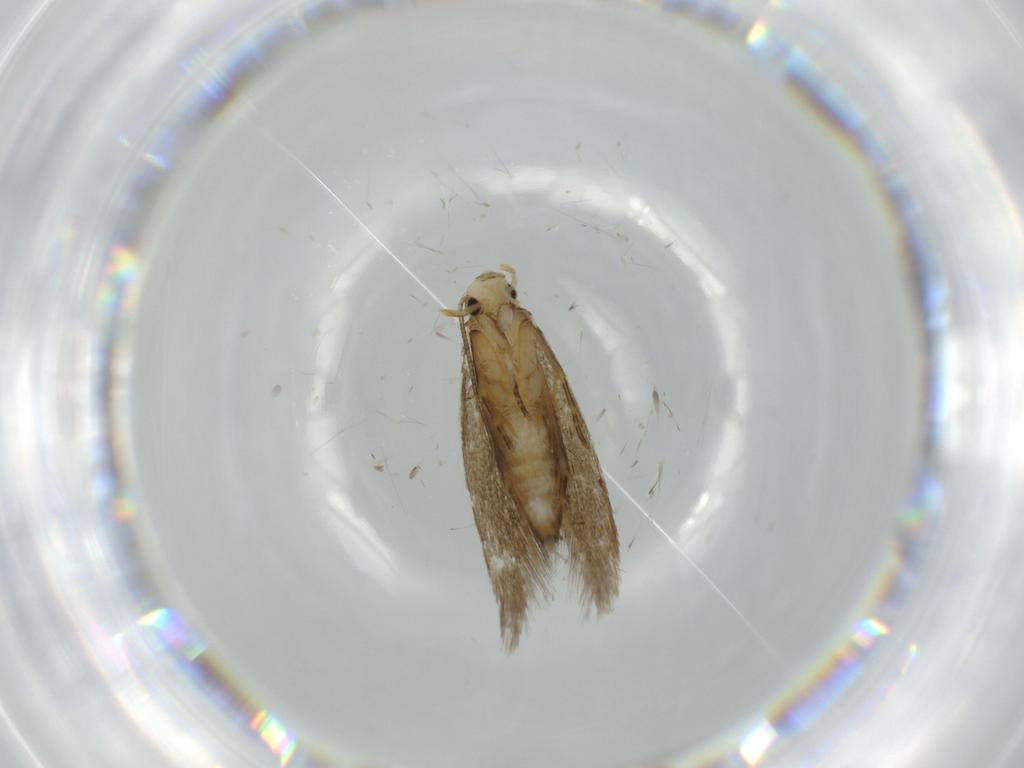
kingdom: Animalia
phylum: Arthropoda
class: Insecta
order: Lepidoptera
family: Tineidae
